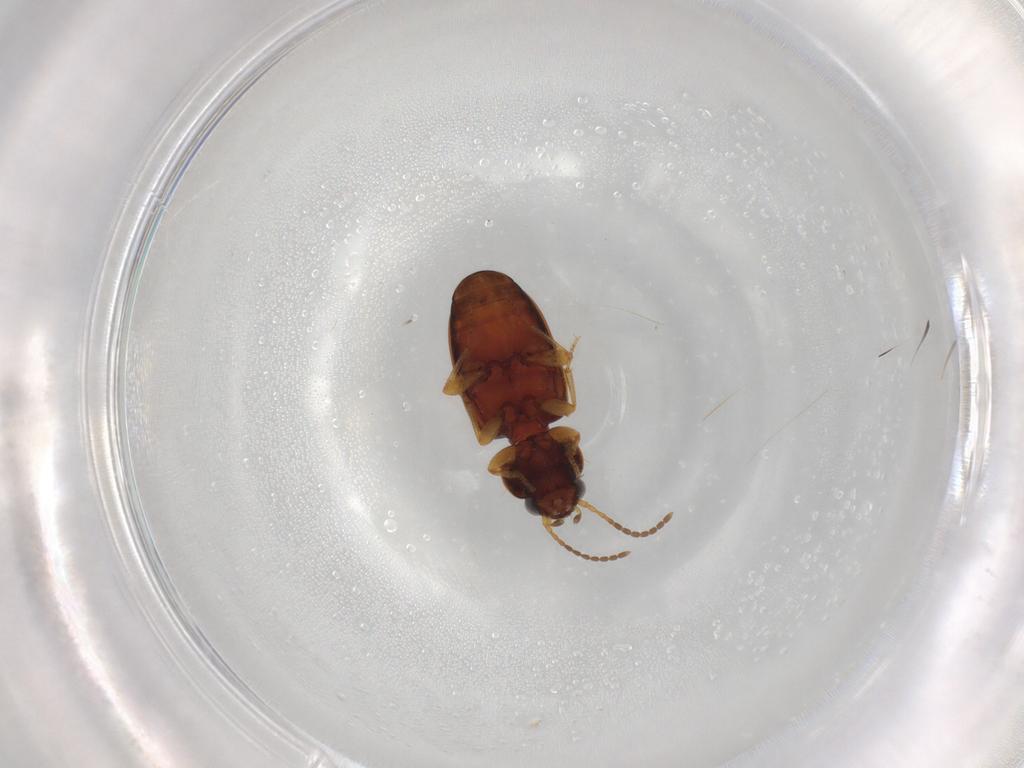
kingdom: Animalia
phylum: Arthropoda
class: Insecta
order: Coleoptera
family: Carabidae
